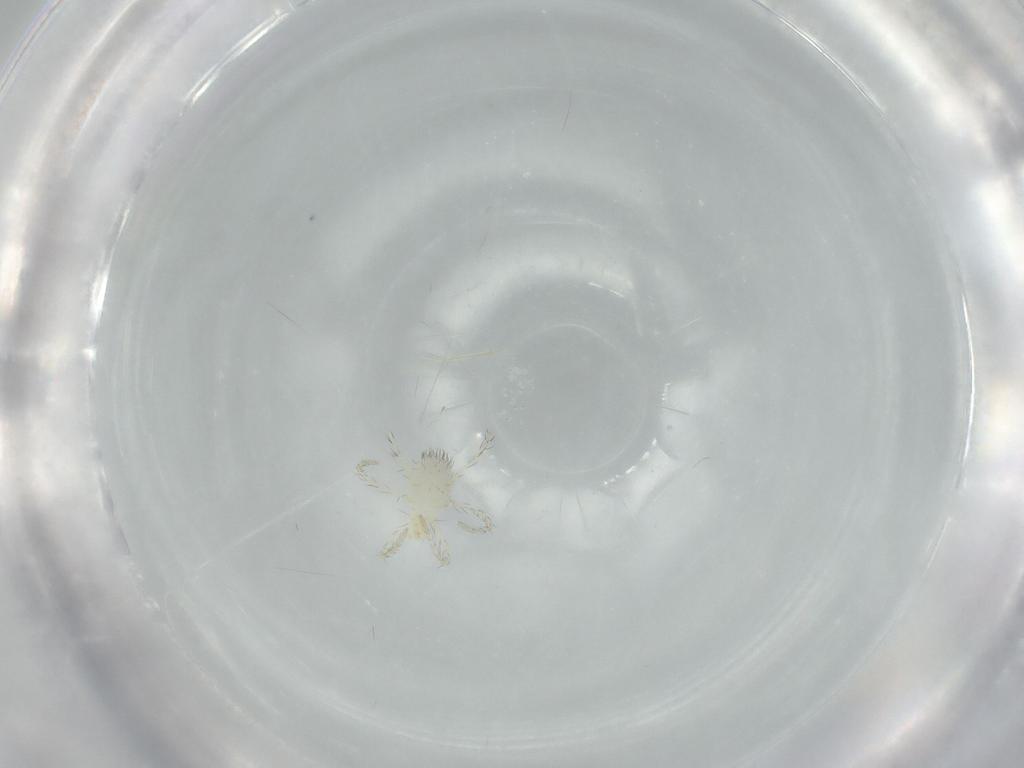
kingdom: Animalia
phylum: Arthropoda
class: Arachnida
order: Trombidiformes
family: Erythraeidae
